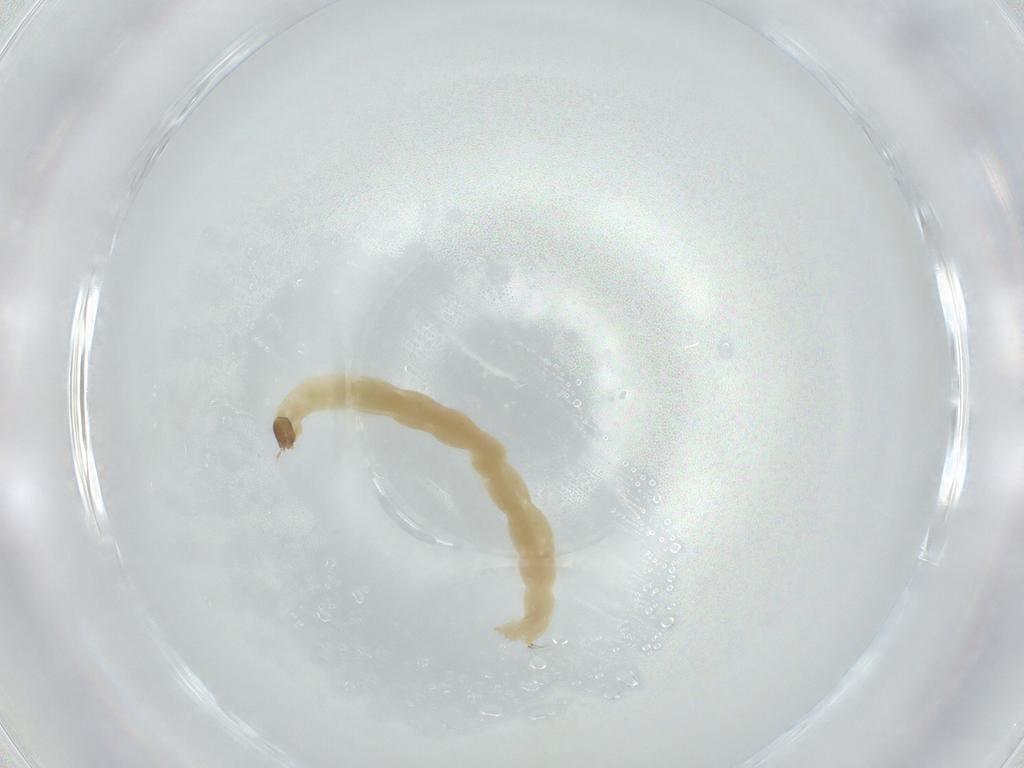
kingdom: Animalia
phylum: Arthropoda
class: Insecta
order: Diptera
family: Chironomidae
